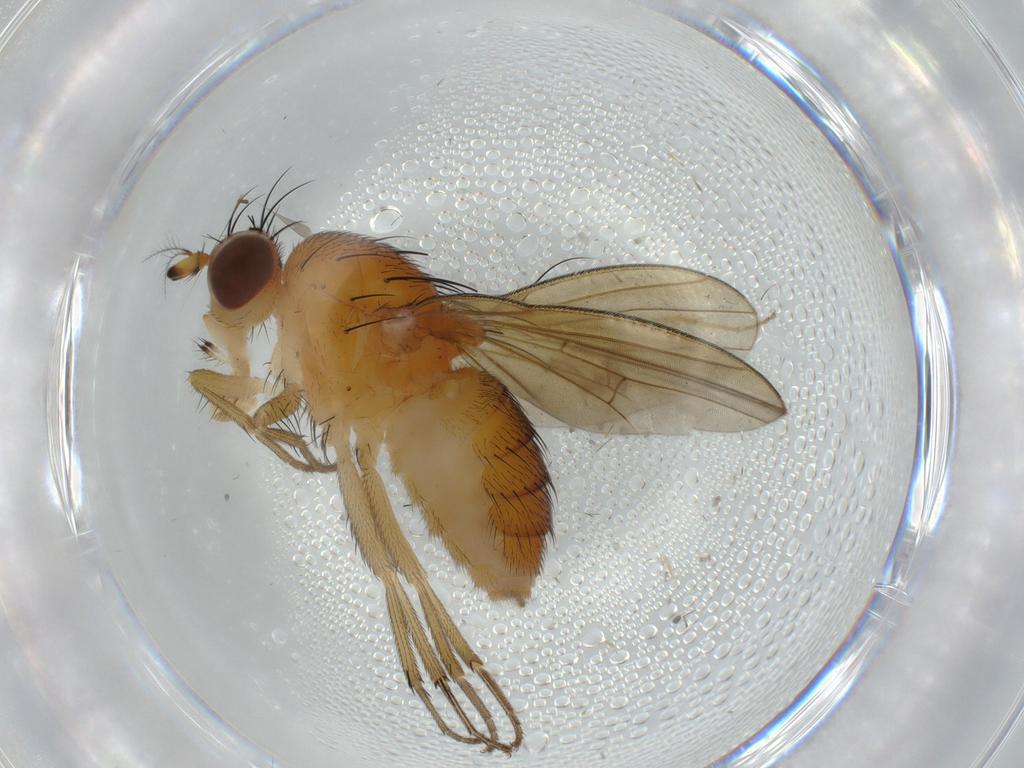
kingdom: Animalia
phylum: Arthropoda
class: Insecta
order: Diptera
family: Lauxaniidae
